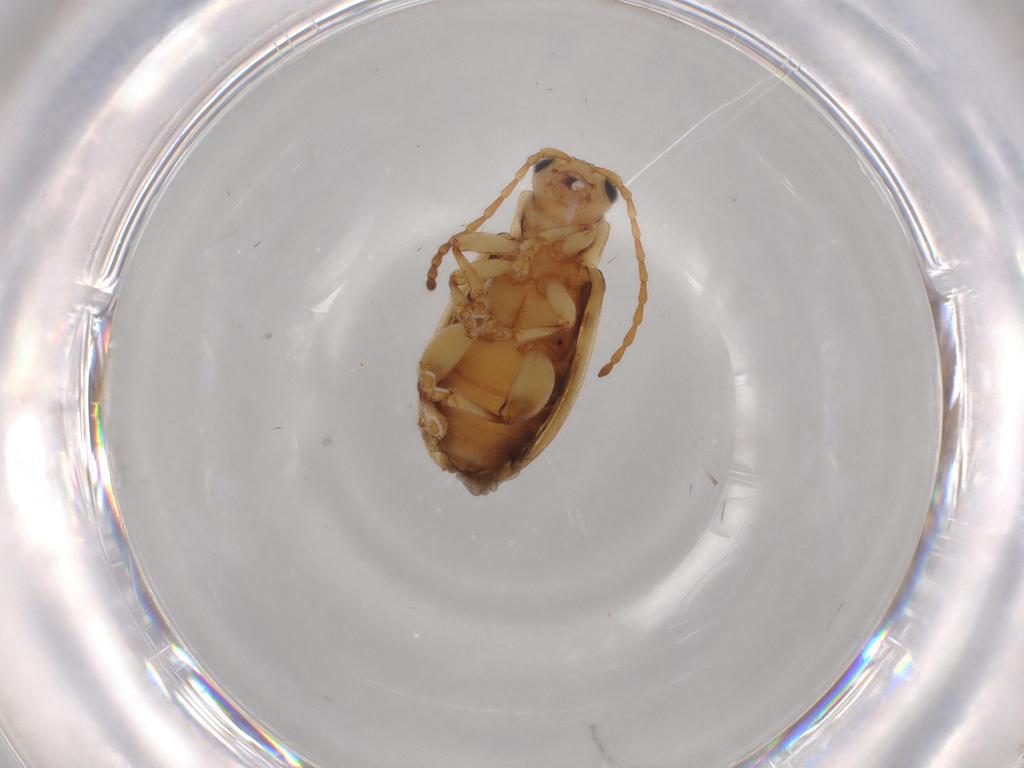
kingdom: Animalia
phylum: Arthropoda
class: Insecta
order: Coleoptera
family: Chrysomelidae
